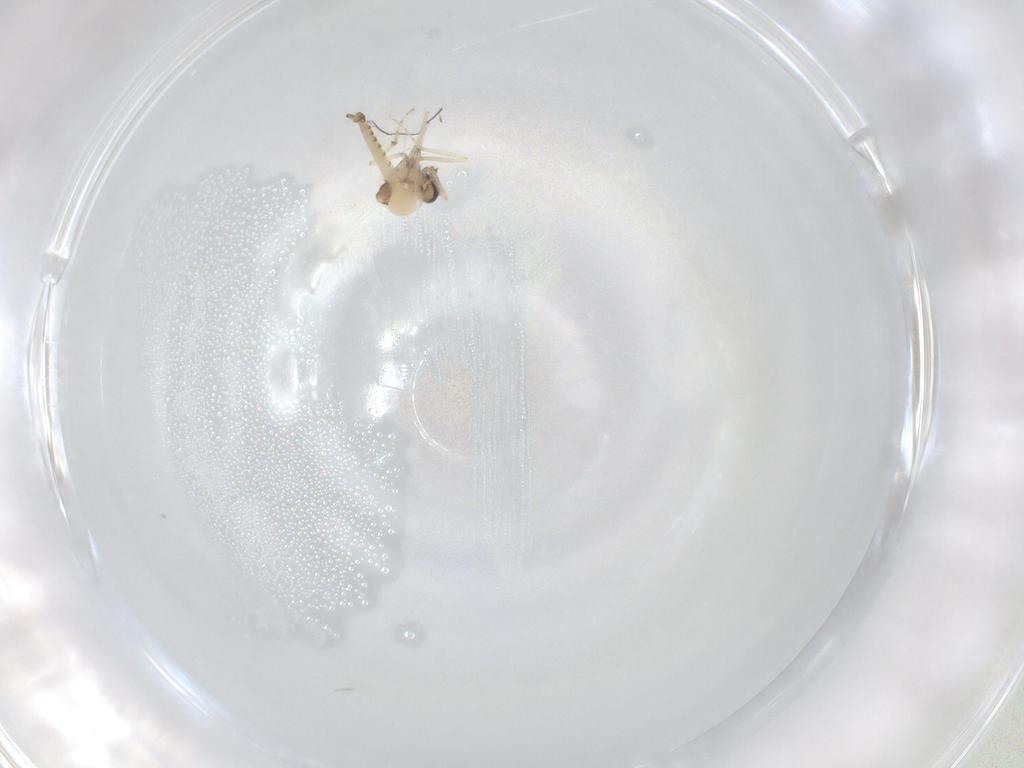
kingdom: Animalia
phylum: Arthropoda
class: Insecta
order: Diptera
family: Ceratopogonidae
